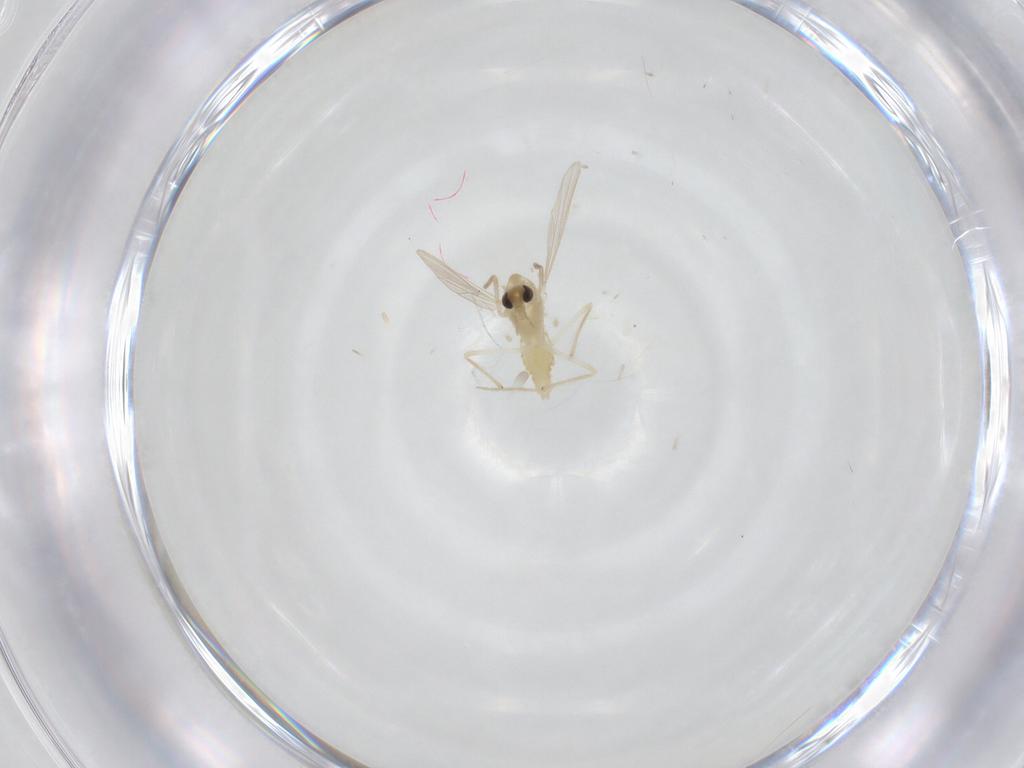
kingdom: Animalia
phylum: Arthropoda
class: Insecta
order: Diptera
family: Chironomidae
